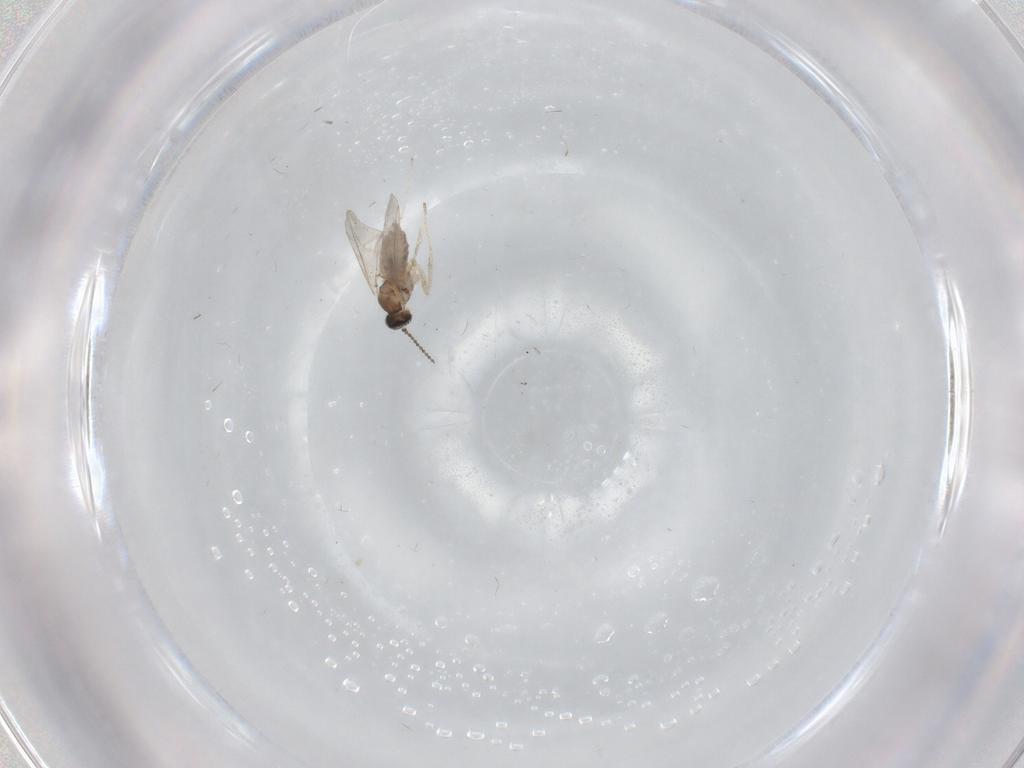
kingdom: Animalia
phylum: Arthropoda
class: Insecta
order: Diptera
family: Cecidomyiidae
